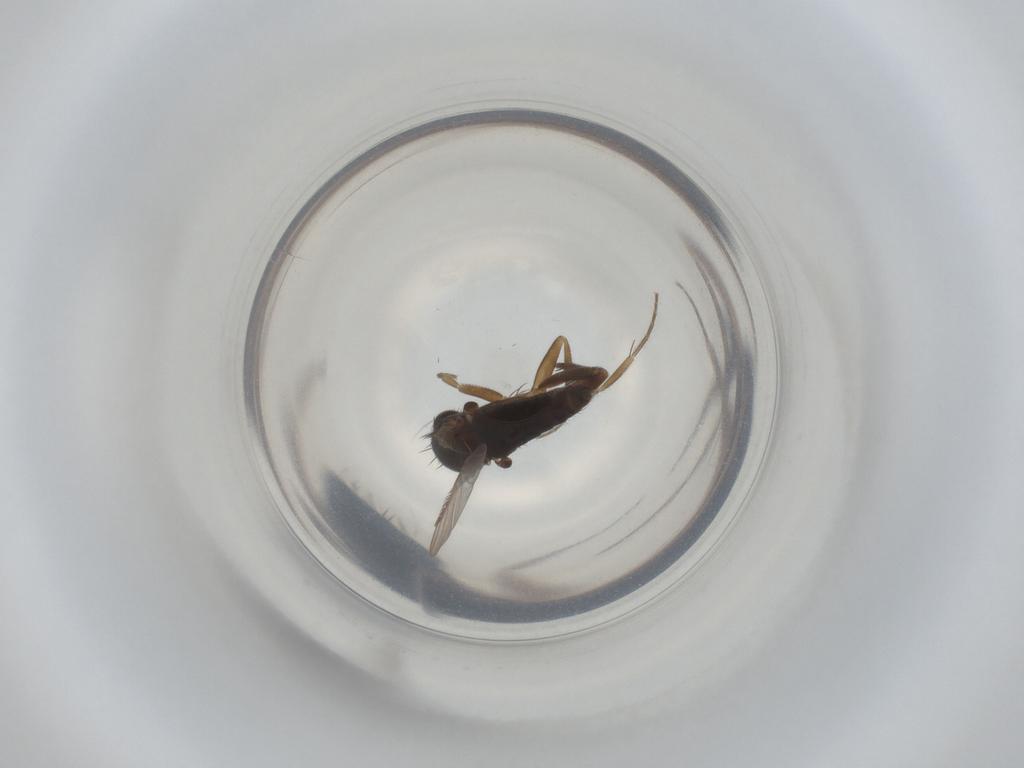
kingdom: Animalia
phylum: Arthropoda
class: Insecta
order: Diptera
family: Phoridae
